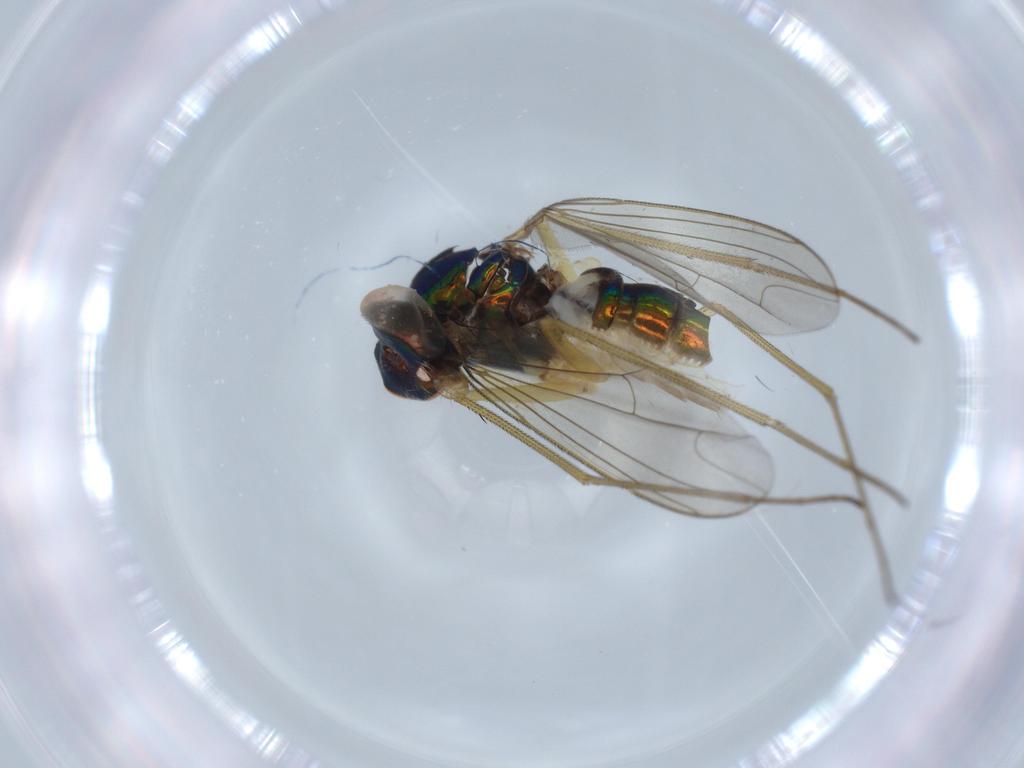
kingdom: Animalia
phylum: Arthropoda
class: Insecta
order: Diptera
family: Dolichopodidae
